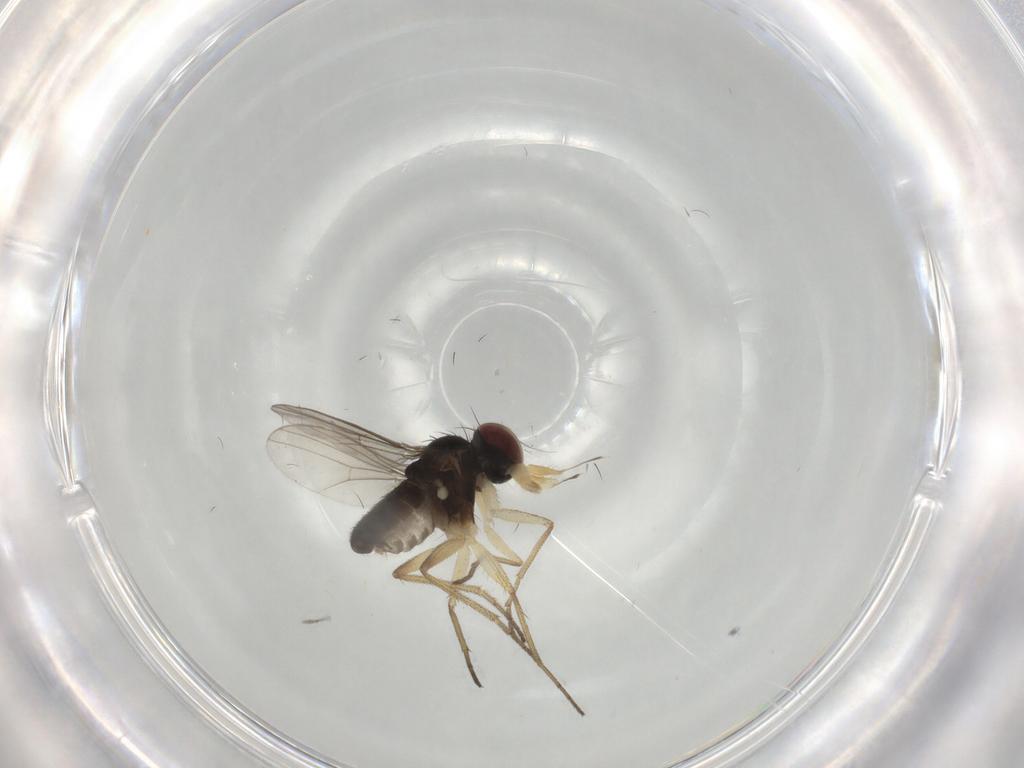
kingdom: Animalia
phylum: Arthropoda
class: Insecta
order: Diptera
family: Dolichopodidae
